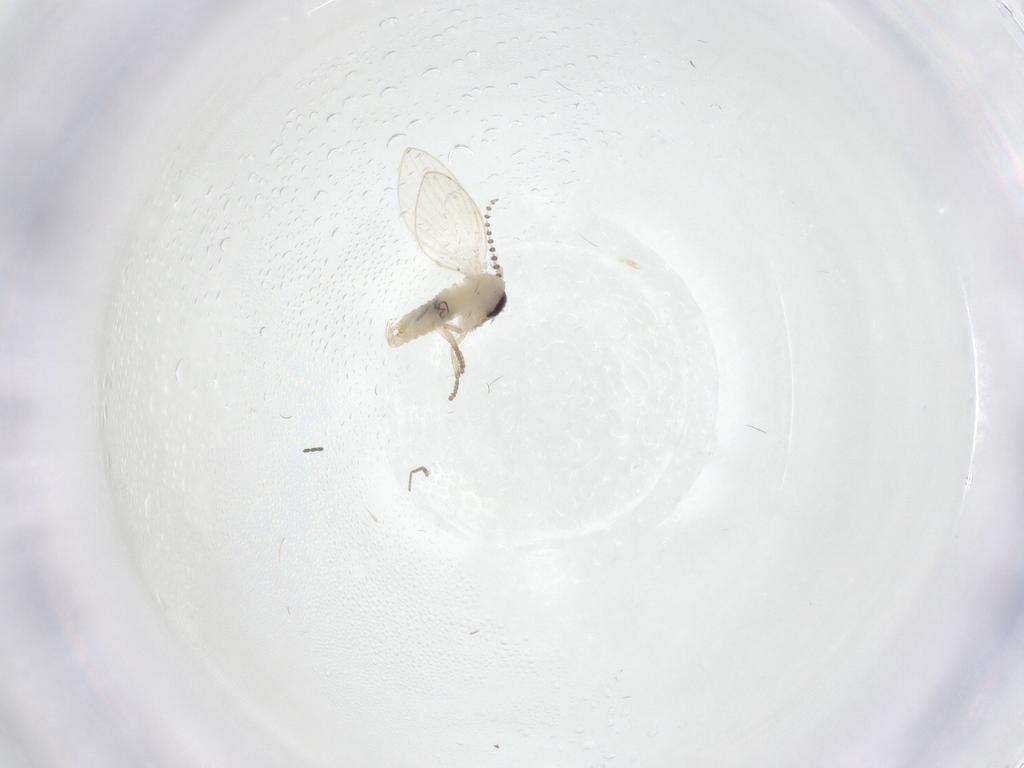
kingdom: Animalia
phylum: Arthropoda
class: Insecta
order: Diptera
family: Psychodidae
